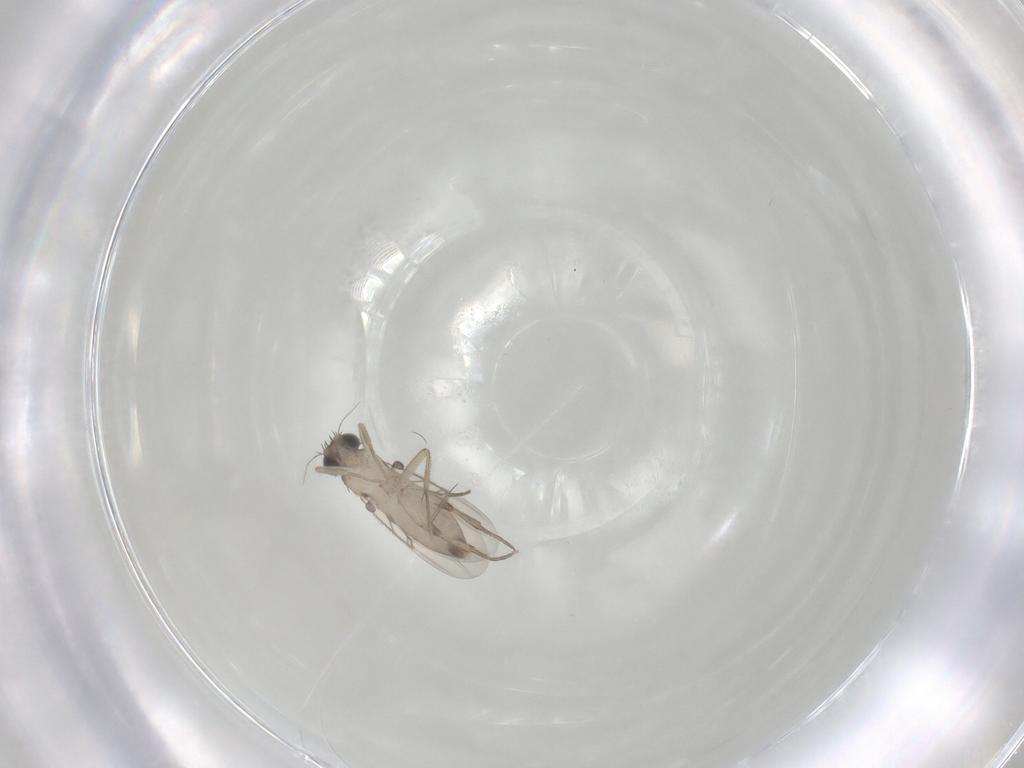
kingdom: Animalia
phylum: Arthropoda
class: Insecta
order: Diptera
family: Phoridae
